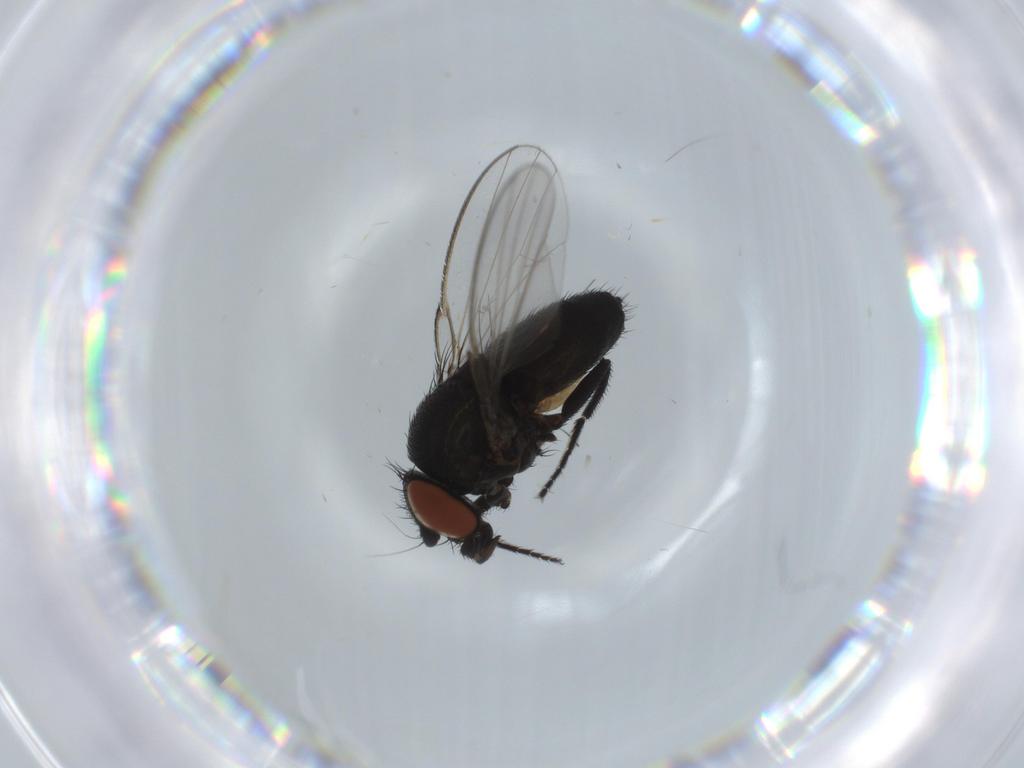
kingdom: Animalia
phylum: Arthropoda
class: Insecta
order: Diptera
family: Milichiidae
